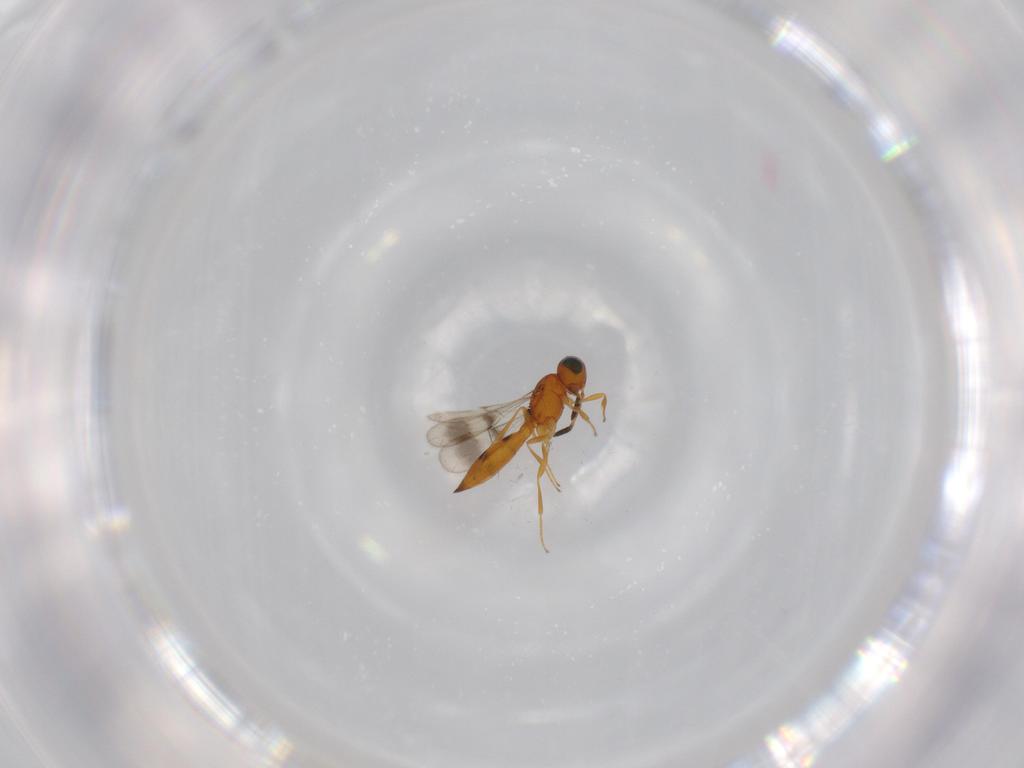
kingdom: Animalia
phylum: Arthropoda
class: Insecta
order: Hymenoptera
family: Scelionidae
